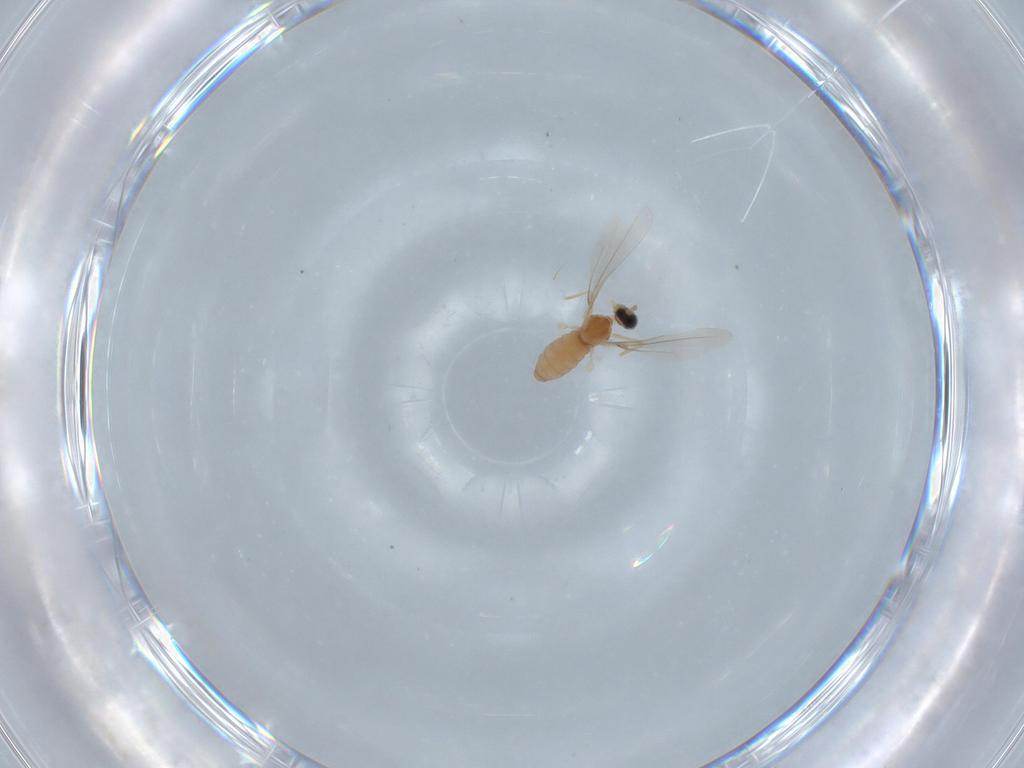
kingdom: Animalia
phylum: Arthropoda
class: Insecta
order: Diptera
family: Cecidomyiidae
